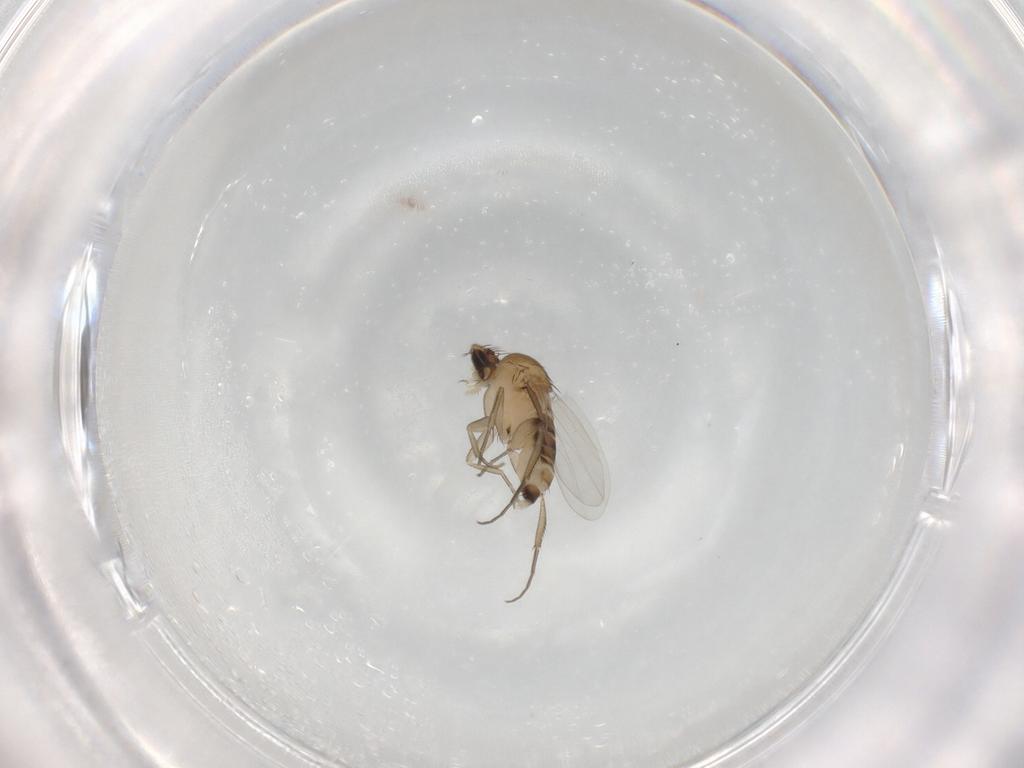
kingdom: Animalia
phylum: Arthropoda
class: Insecta
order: Diptera
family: Phoridae
